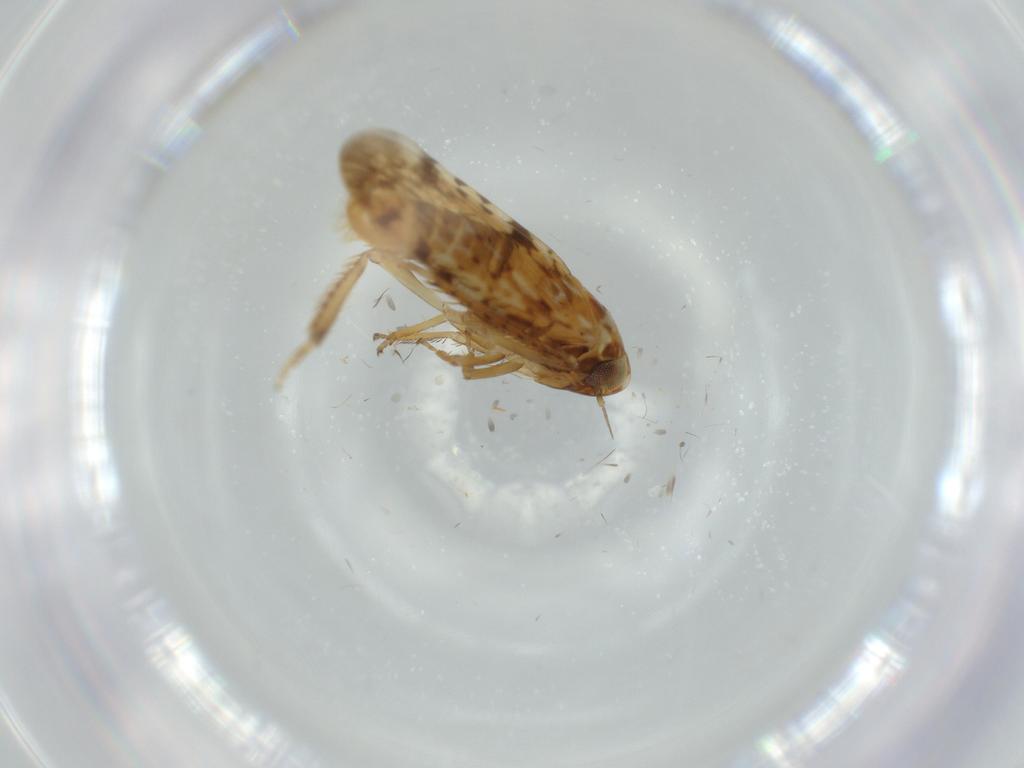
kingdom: Animalia
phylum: Arthropoda
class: Insecta
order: Hemiptera
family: Cicadellidae
